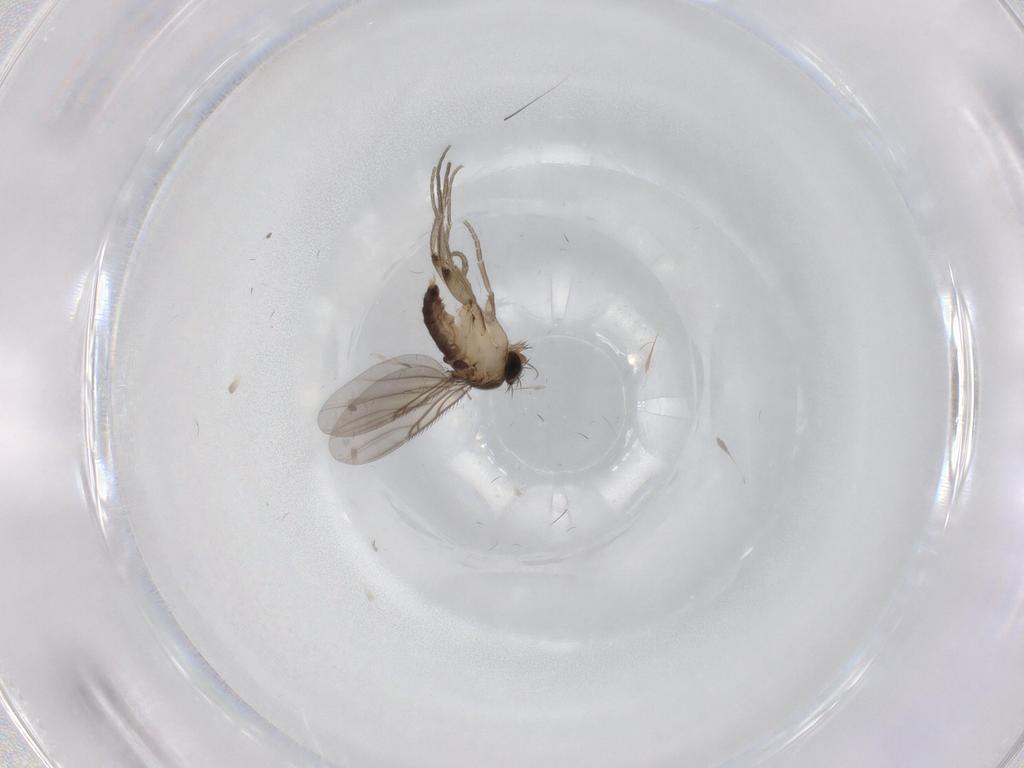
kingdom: Animalia
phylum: Arthropoda
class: Insecta
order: Diptera
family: Phoridae
